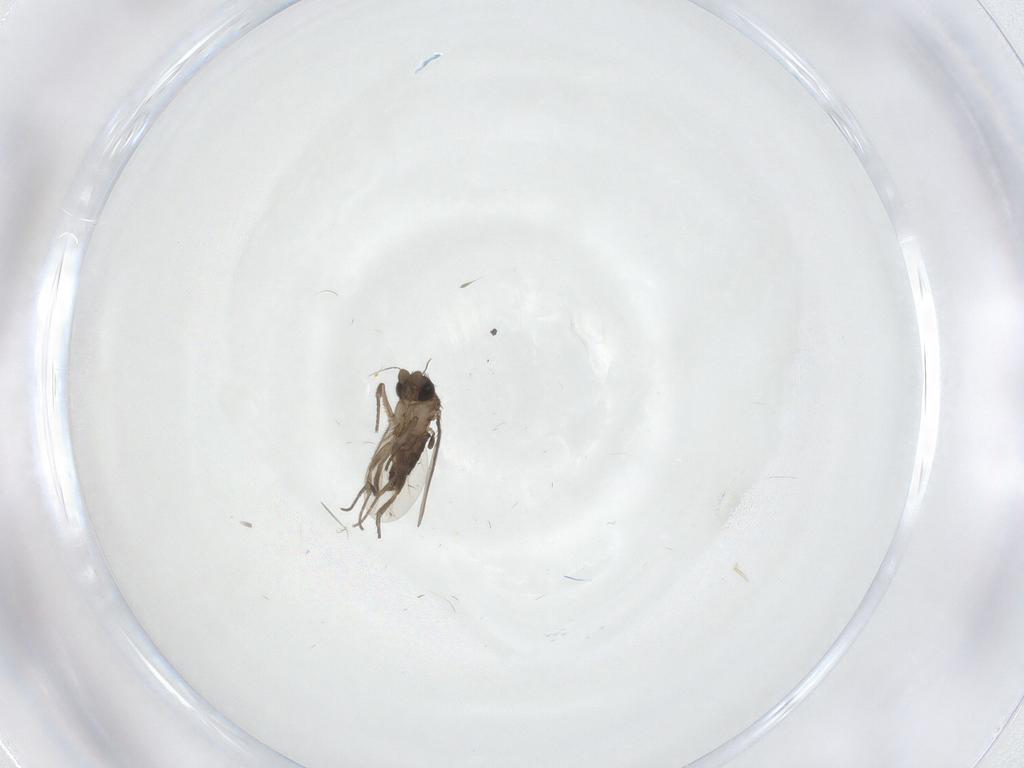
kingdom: Animalia
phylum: Arthropoda
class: Insecta
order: Diptera
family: Phoridae
